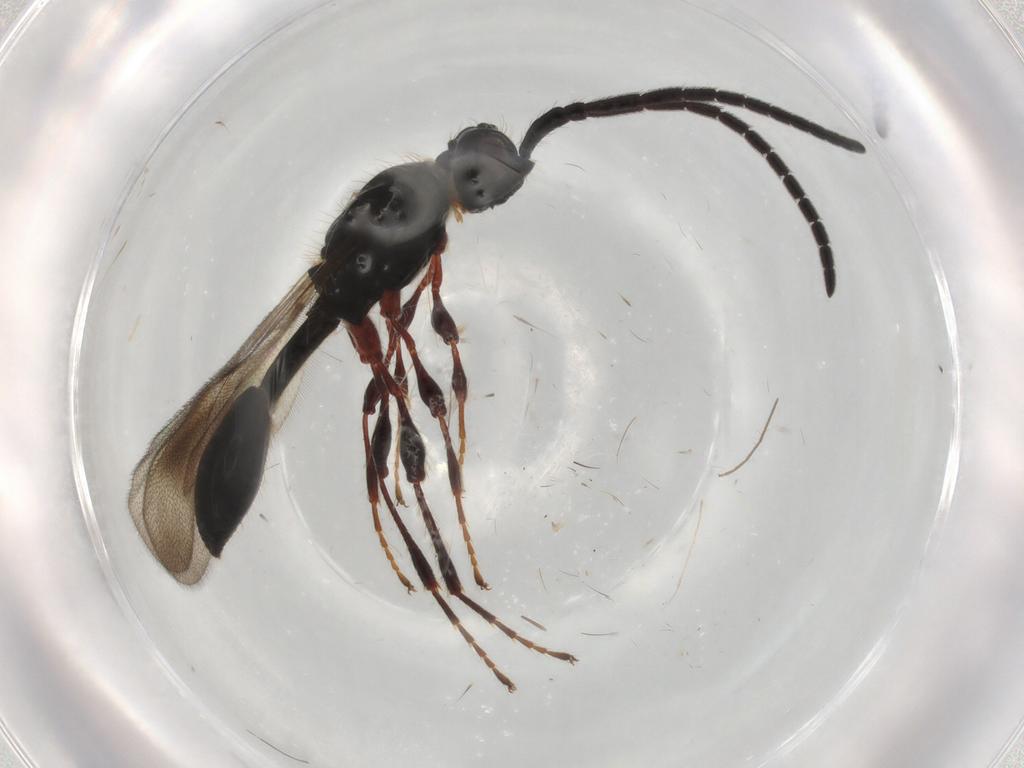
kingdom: Animalia
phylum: Arthropoda
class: Insecta
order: Hymenoptera
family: Diapriidae
